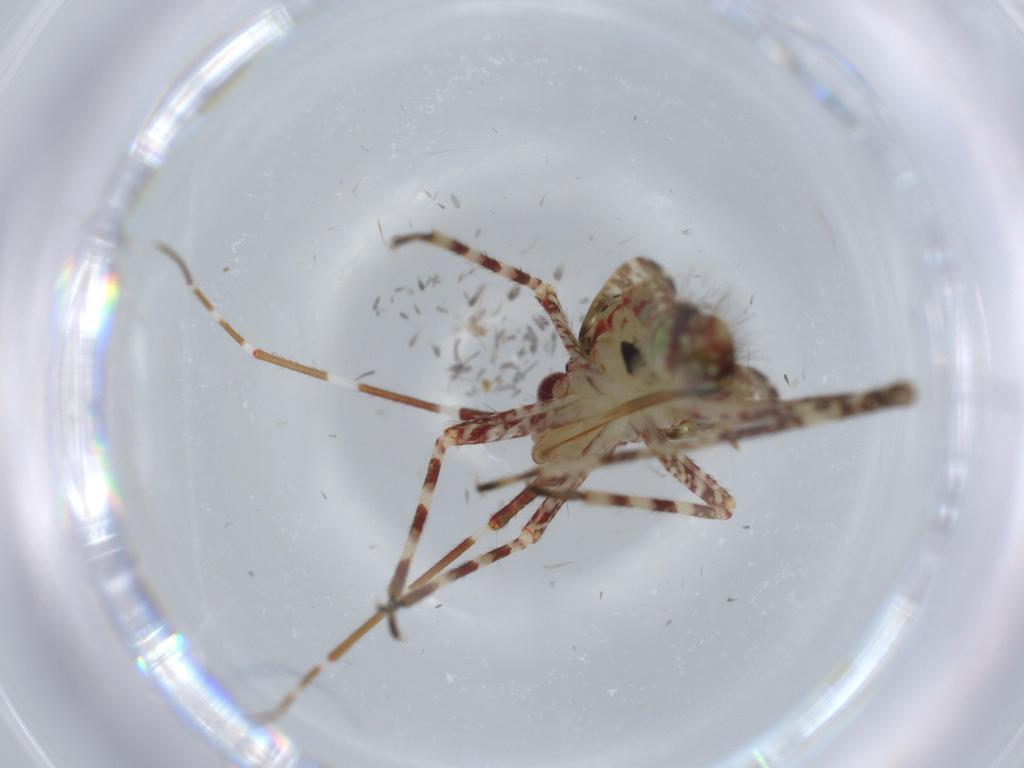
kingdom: Animalia
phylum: Arthropoda
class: Insecta
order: Hemiptera
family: Miridae
